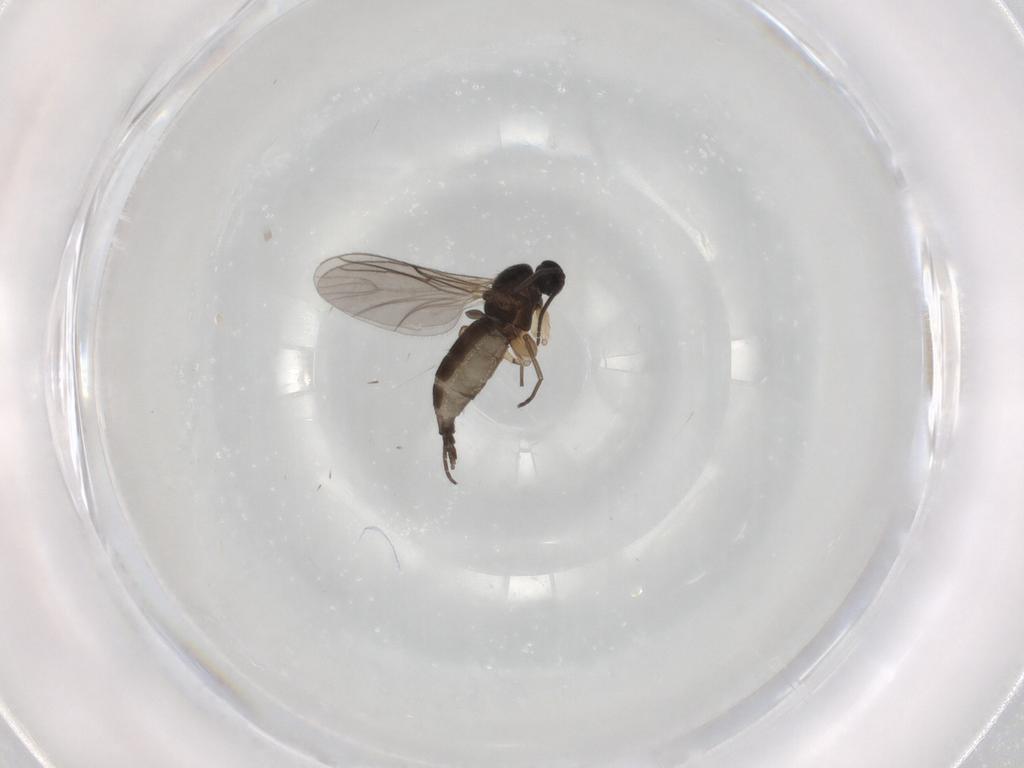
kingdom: Animalia
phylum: Arthropoda
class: Insecta
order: Diptera
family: Sciaridae
